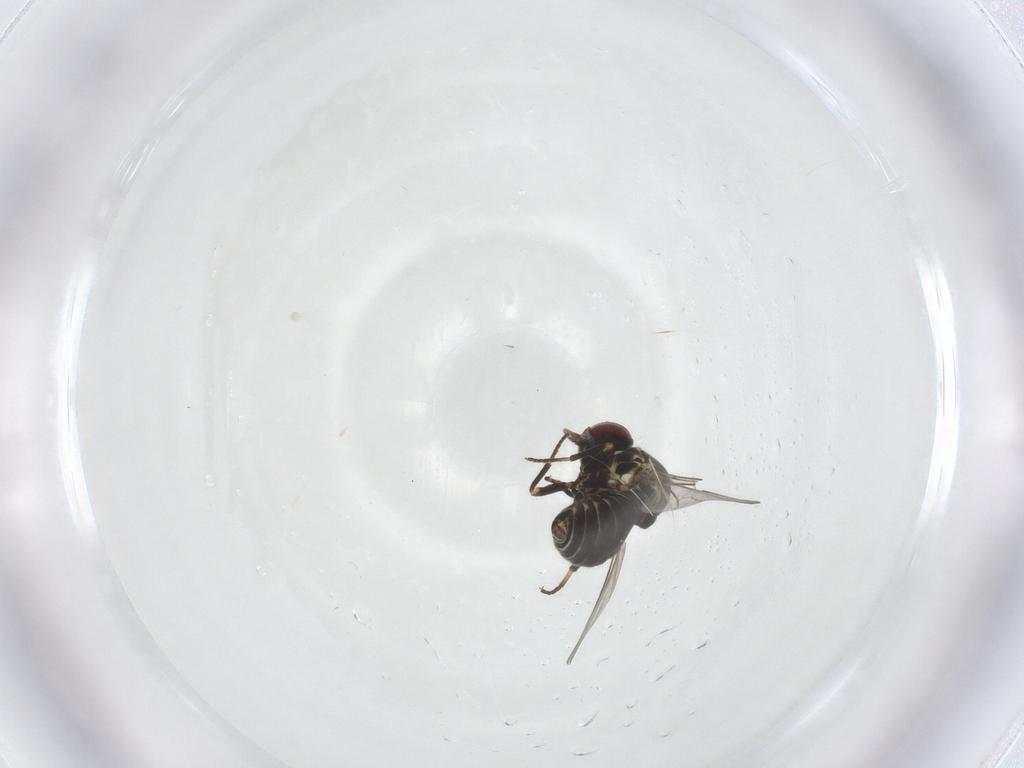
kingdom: Animalia
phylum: Arthropoda
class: Insecta
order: Diptera
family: Mythicomyiidae
